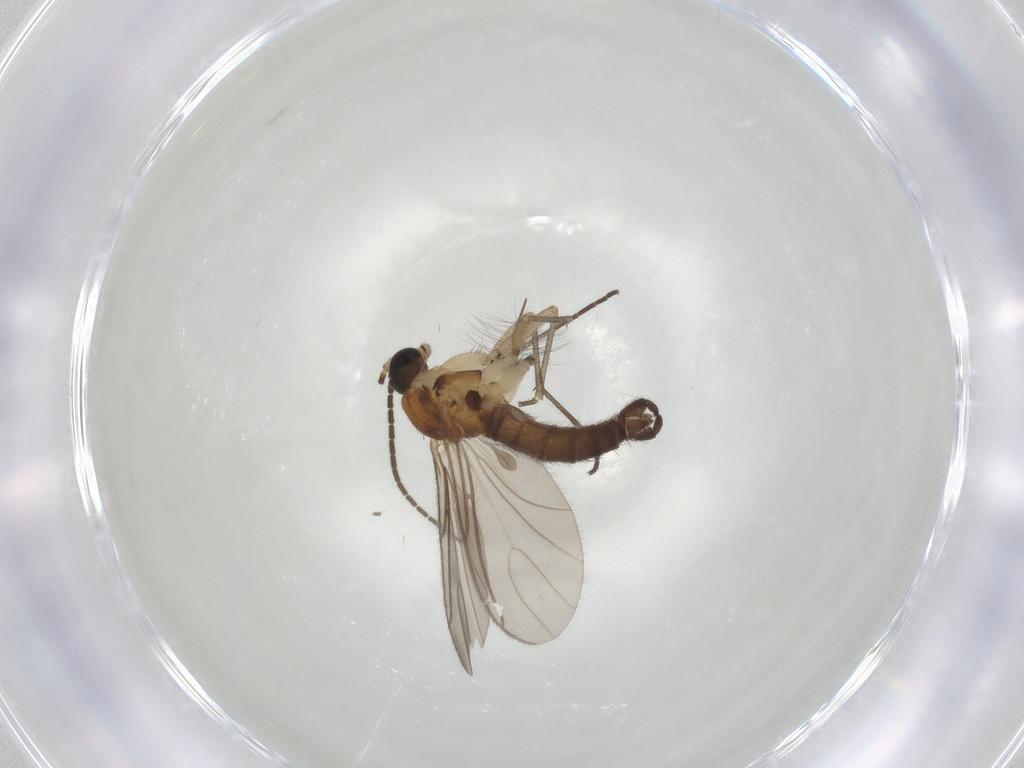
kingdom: Animalia
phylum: Arthropoda
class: Insecta
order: Diptera
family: Sciaridae
